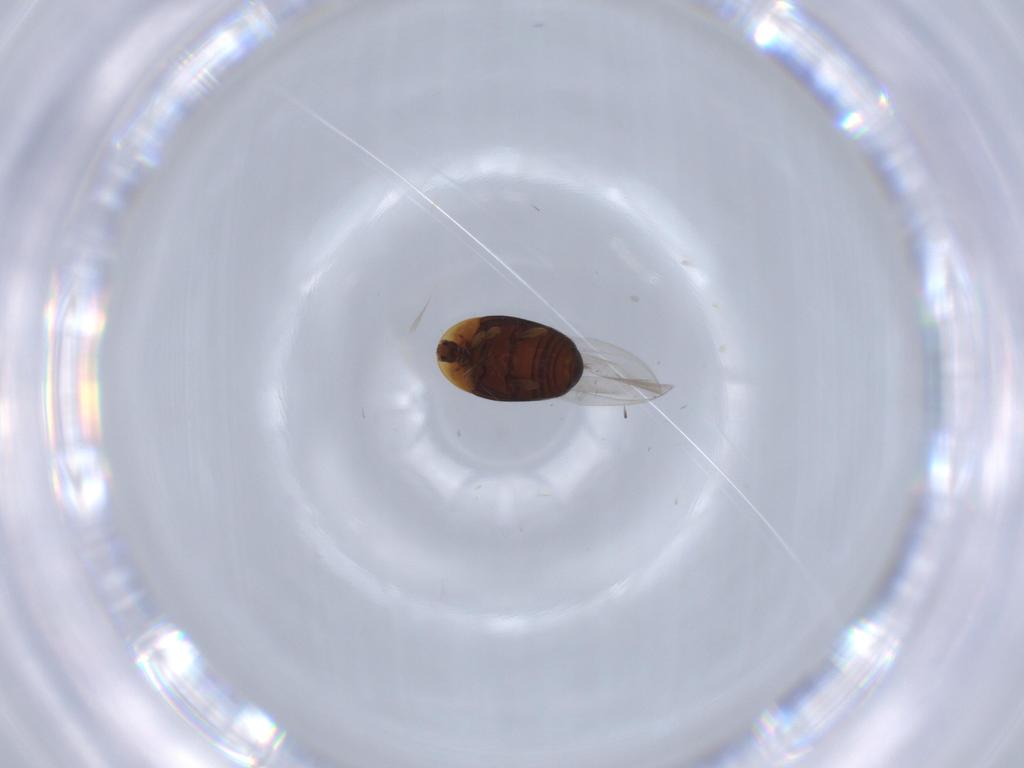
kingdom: Animalia
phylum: Arthropoda
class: Insecta
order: Coleoptera
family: Corylophidae
